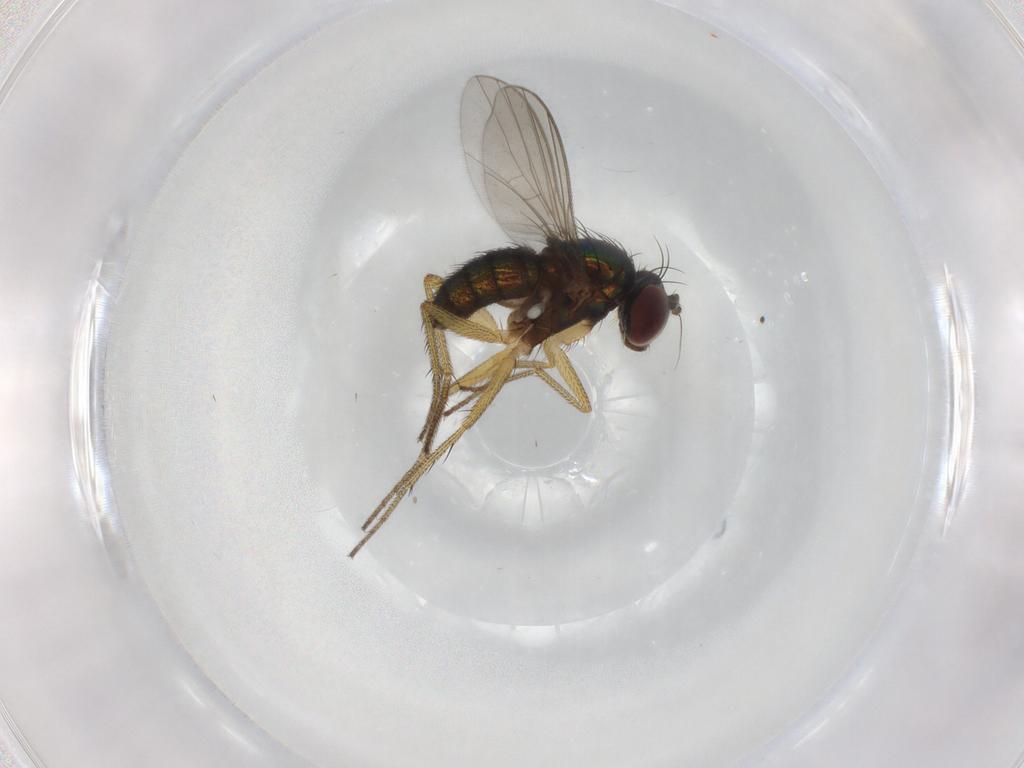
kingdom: Animalia
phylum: Arthropoda
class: Insecta
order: Diptera
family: Dolichopodidae
